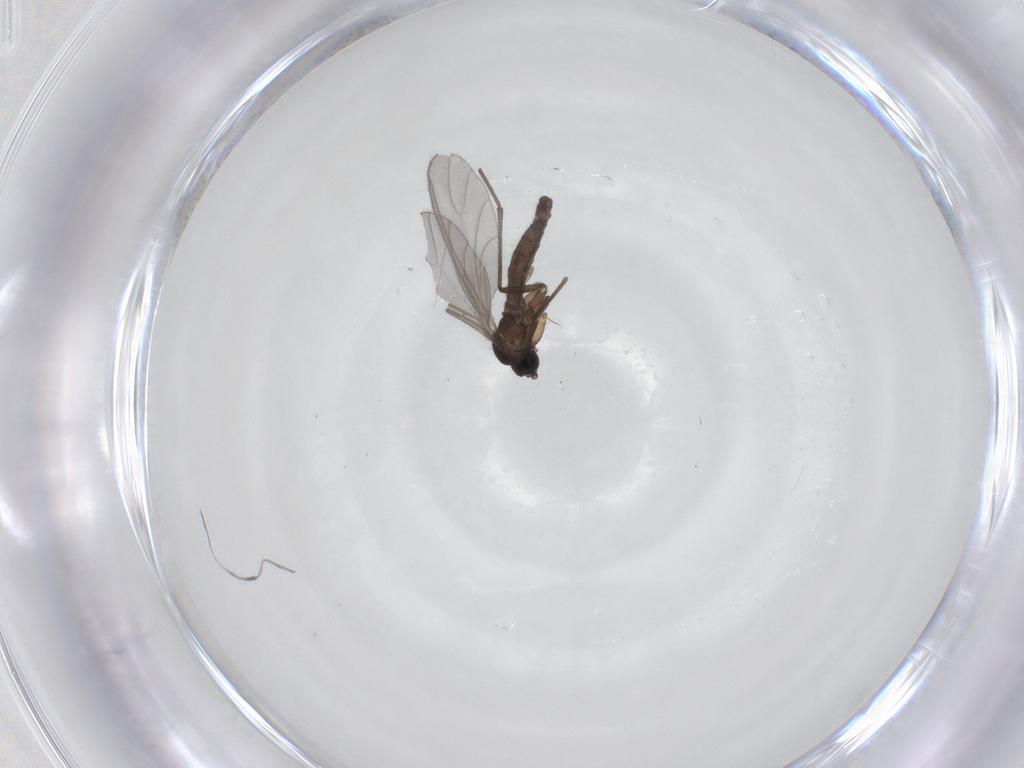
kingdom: Animalia
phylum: Arthropoda
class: Insecta
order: Diptera
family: Sciaridae
